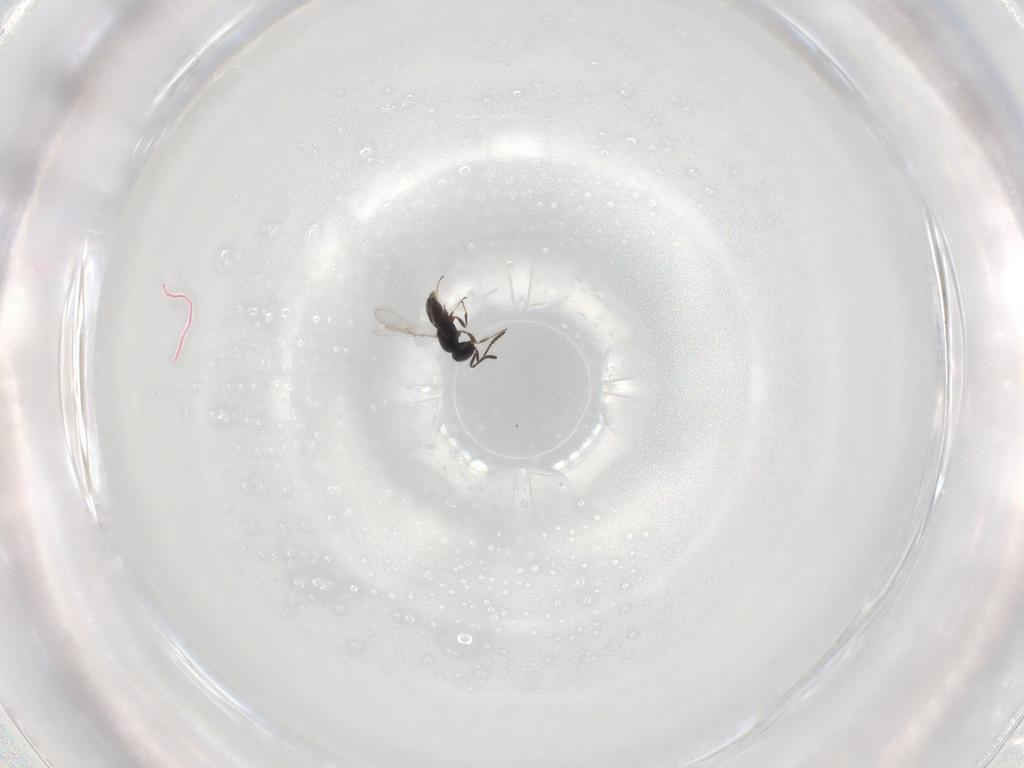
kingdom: Animalia
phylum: Arthropoda
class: Insecta
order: Hymenoptera
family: Scelionidae
